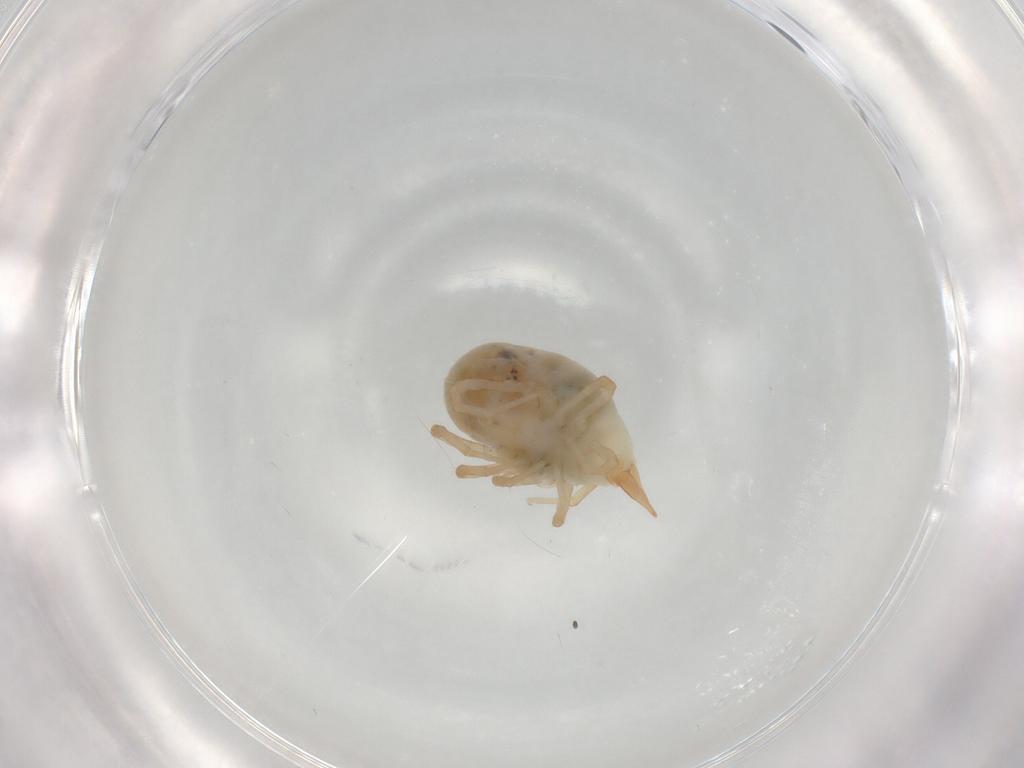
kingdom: Animalia
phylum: Arthropoda
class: Arachnida
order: Trombidiformes
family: Bdellidae
